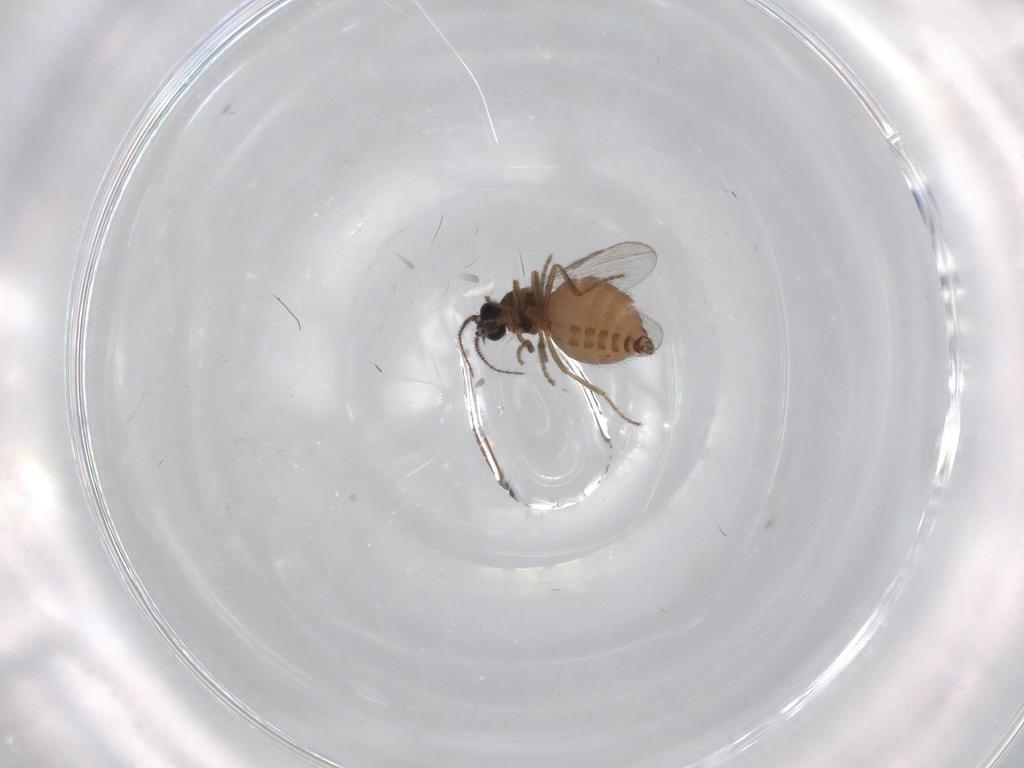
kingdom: Animalia
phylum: Arthropoda
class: Insecta
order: Diptera
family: Ceratopogonidae
